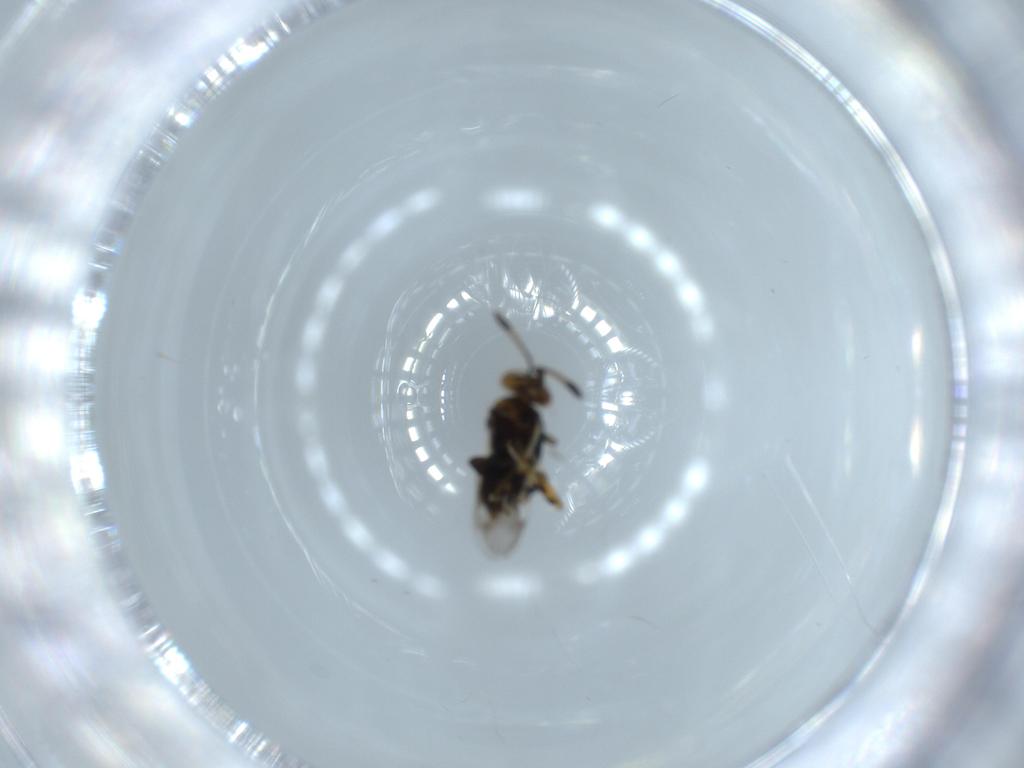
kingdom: Animalia
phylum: Arthropoda
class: Insecta
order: Hymenoptera
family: Encyrtidae
